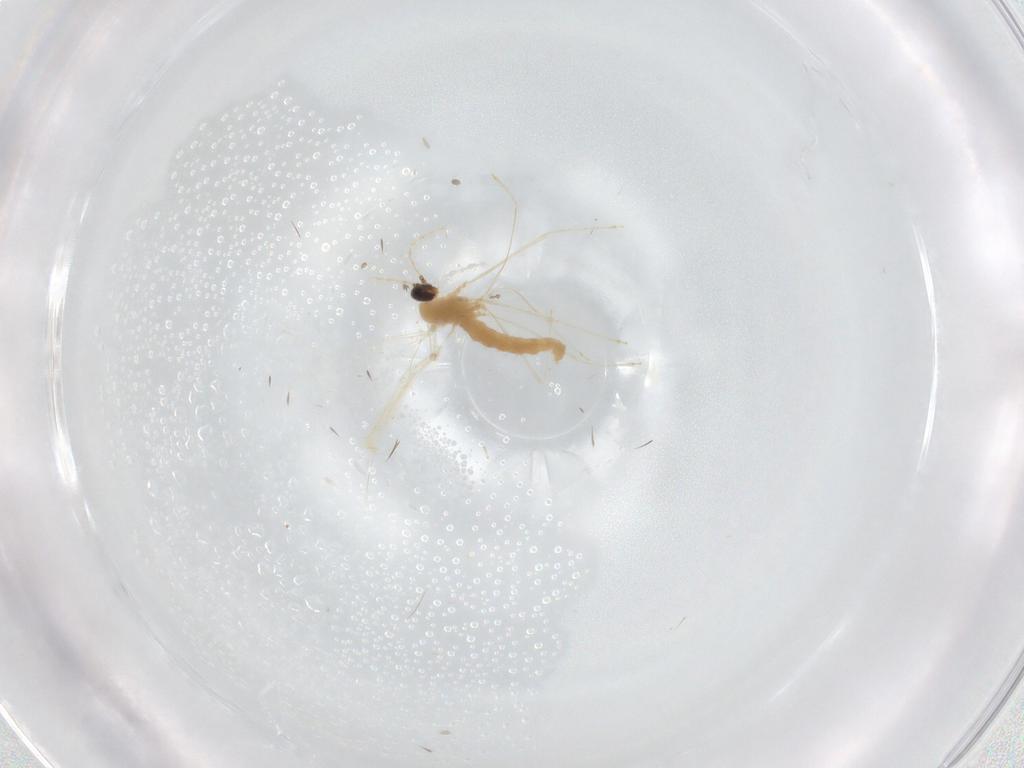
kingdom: Animalia
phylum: Arthropoda
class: Insecta
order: Diptera
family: Cecidomyiidae
